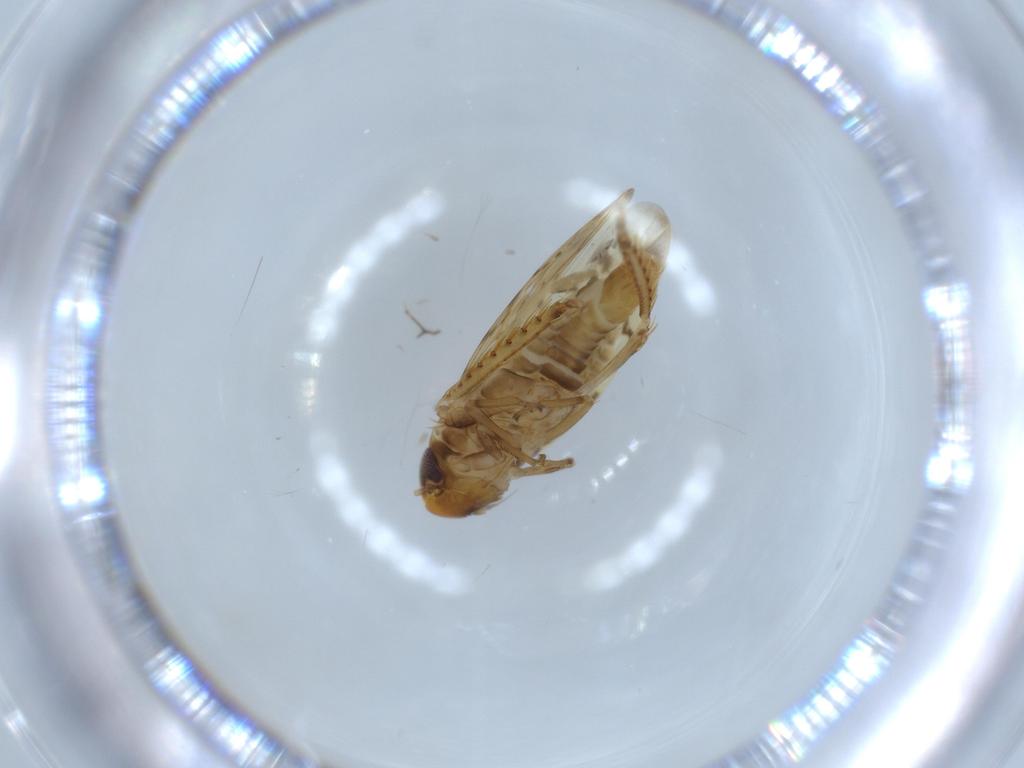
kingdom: Animalia
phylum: Arthropoda
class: Insecta
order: Hemiptera
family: Cicadellidae
